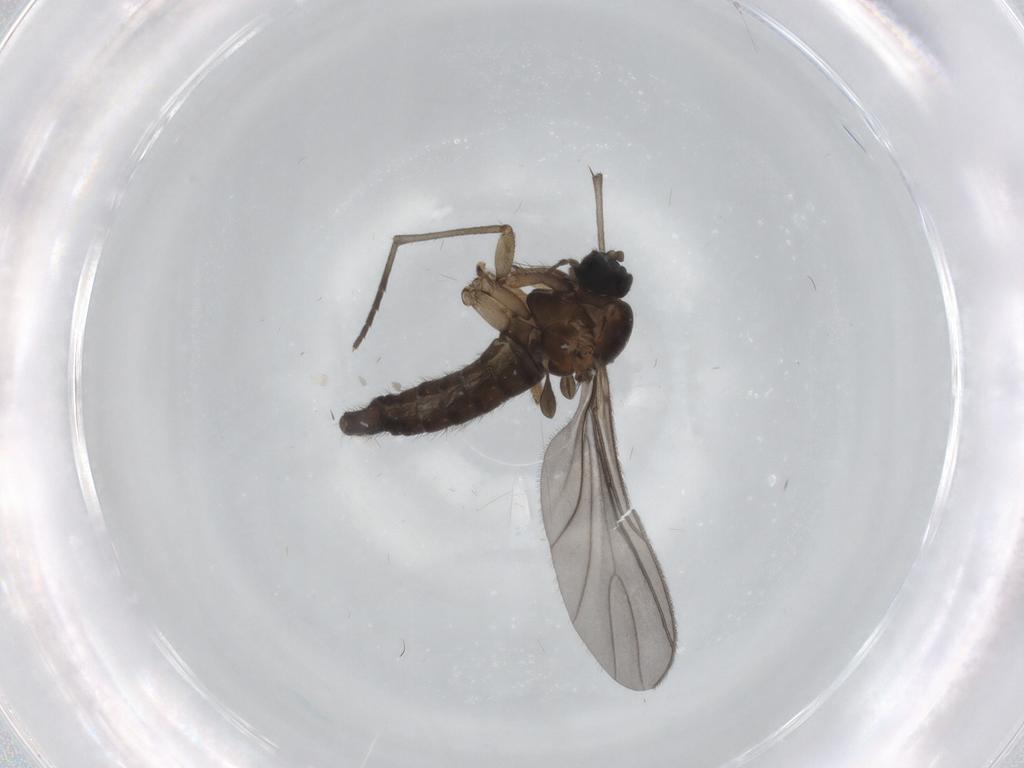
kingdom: Animalia
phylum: Arthropoda
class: Insecta
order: Diptera
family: Sciaridae
